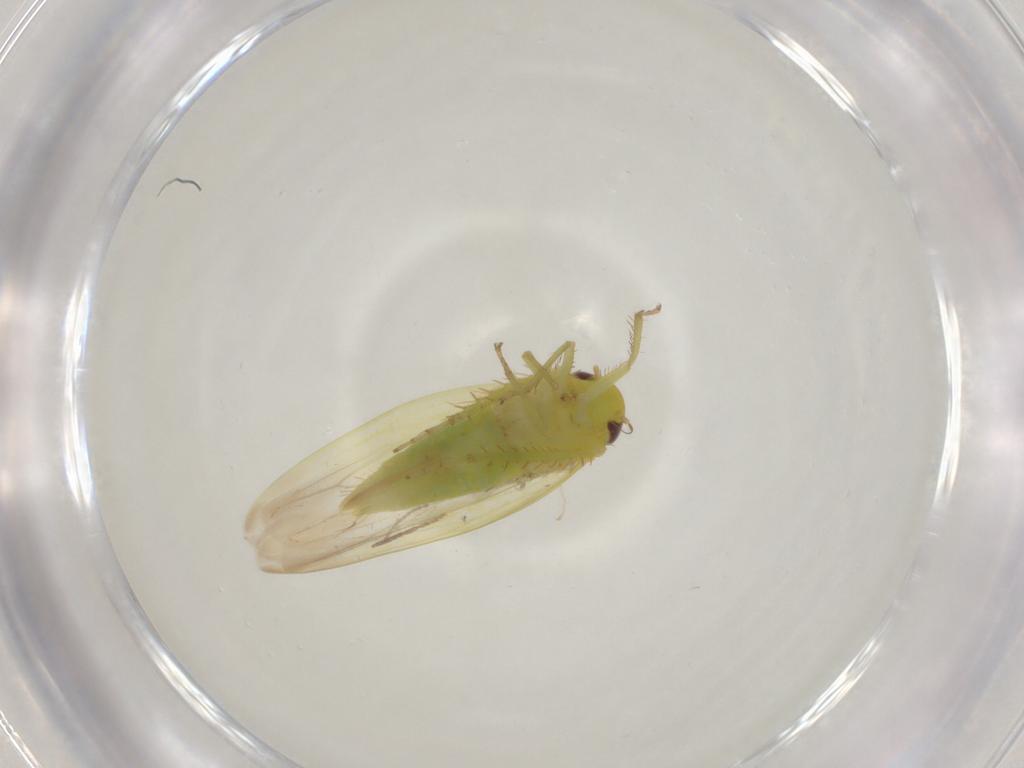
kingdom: Animalia
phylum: Arthropoda
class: Insecta
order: Hemiptera
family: Cicadellidae
